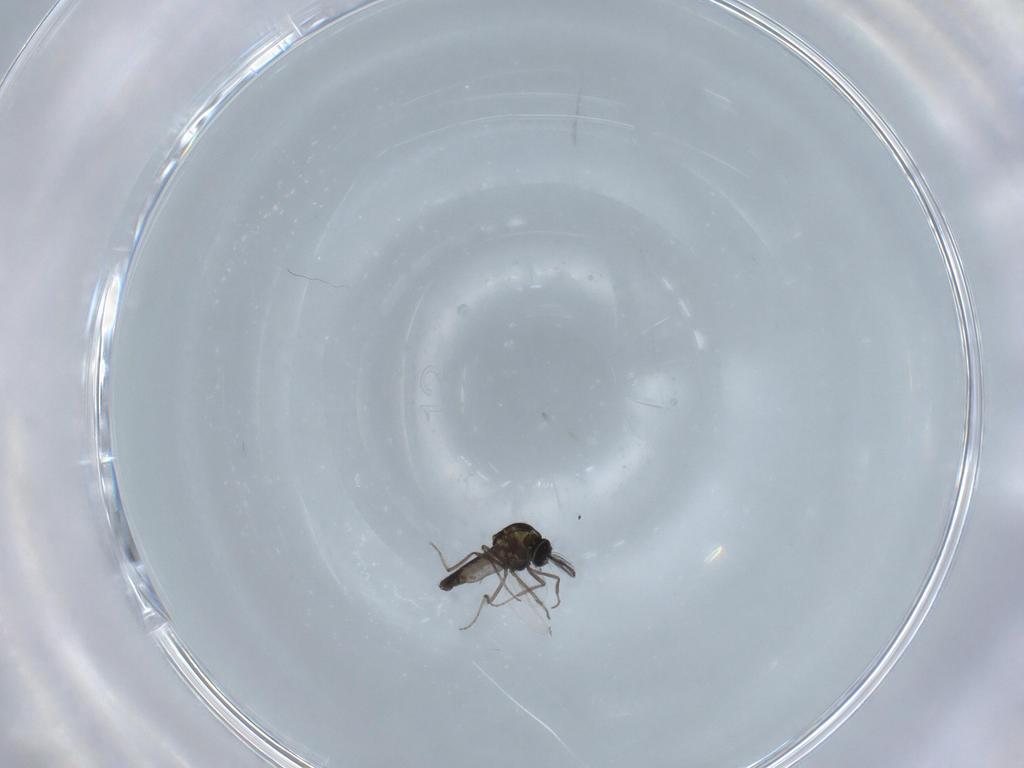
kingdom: Animalia
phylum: Arthropoda
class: Insecta
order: Diptera
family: Ceratopogonidae
